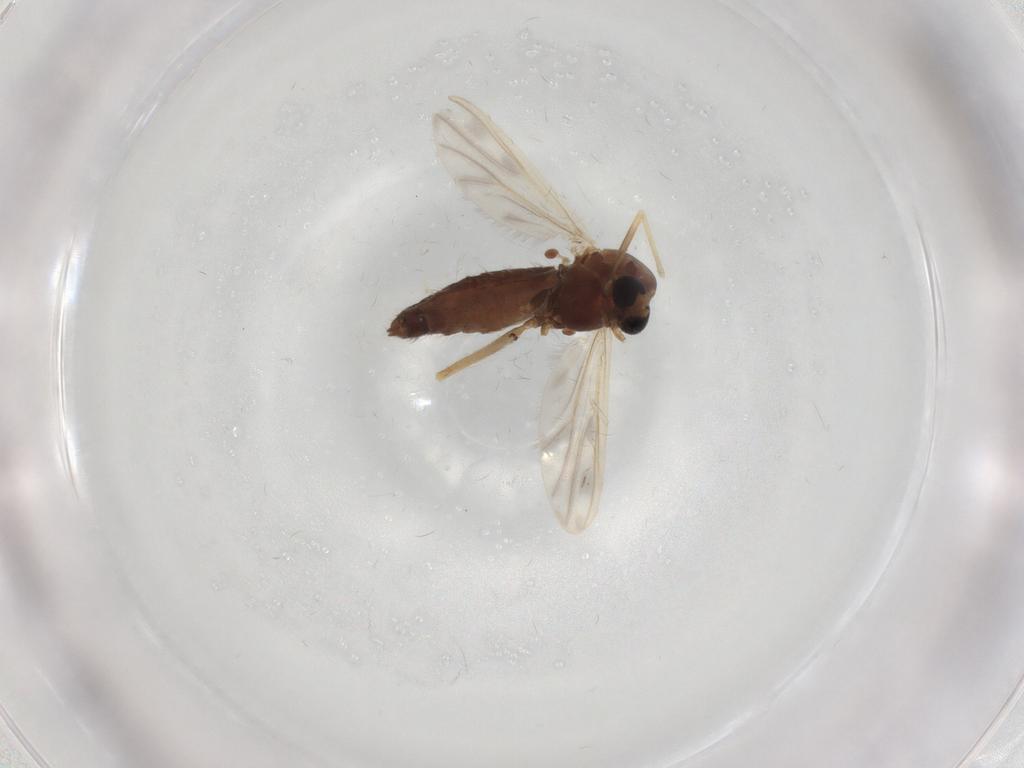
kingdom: Animalia
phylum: Arthropoda
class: Insecta
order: Diptera
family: Chironomidae
